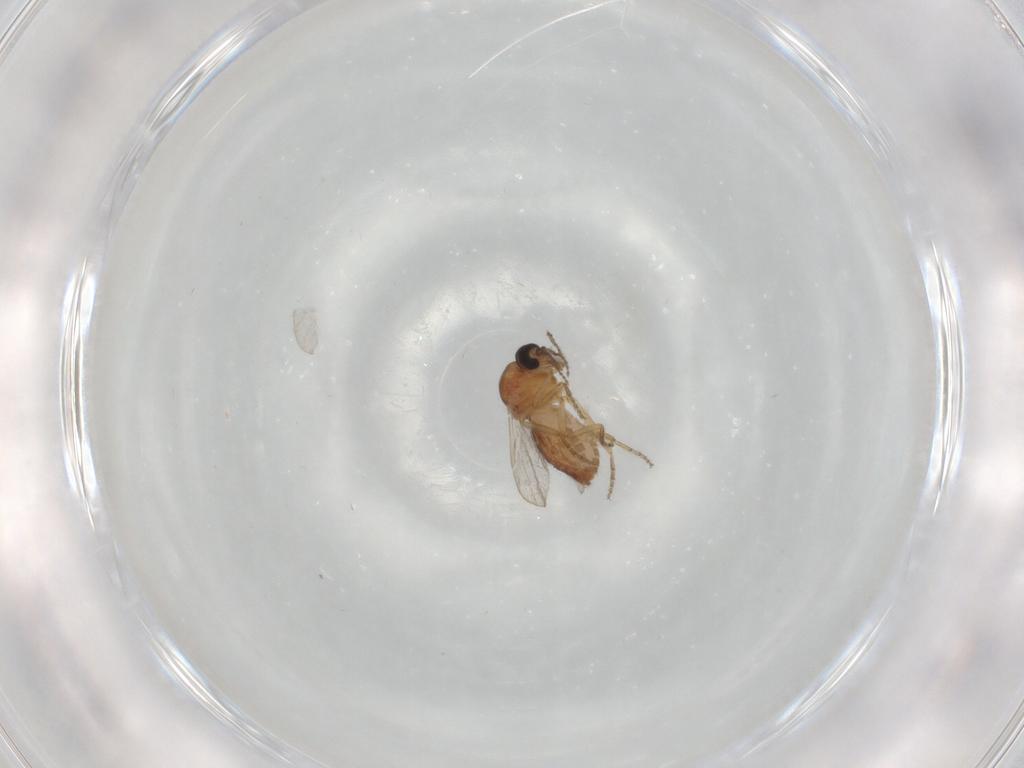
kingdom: Animalia
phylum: Arthropoda
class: Insecta
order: Diptera
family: Ceratopogonidae
